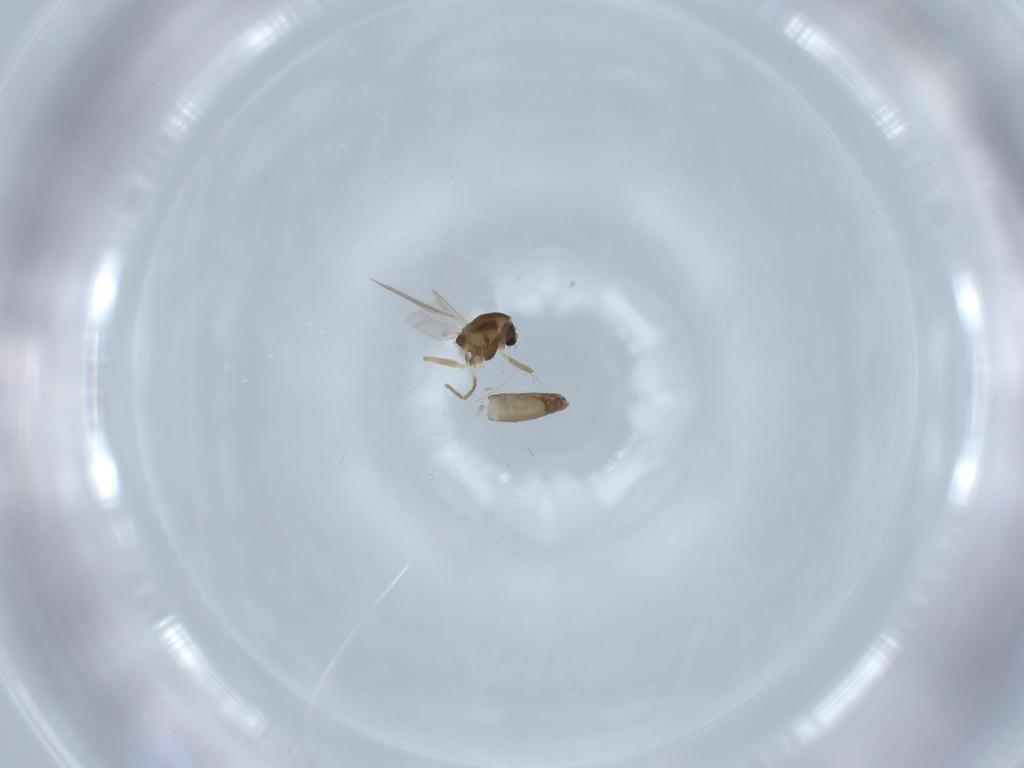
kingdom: Animalia
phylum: Arthropoda
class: Insecta
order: Diptera
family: Chironomidae
